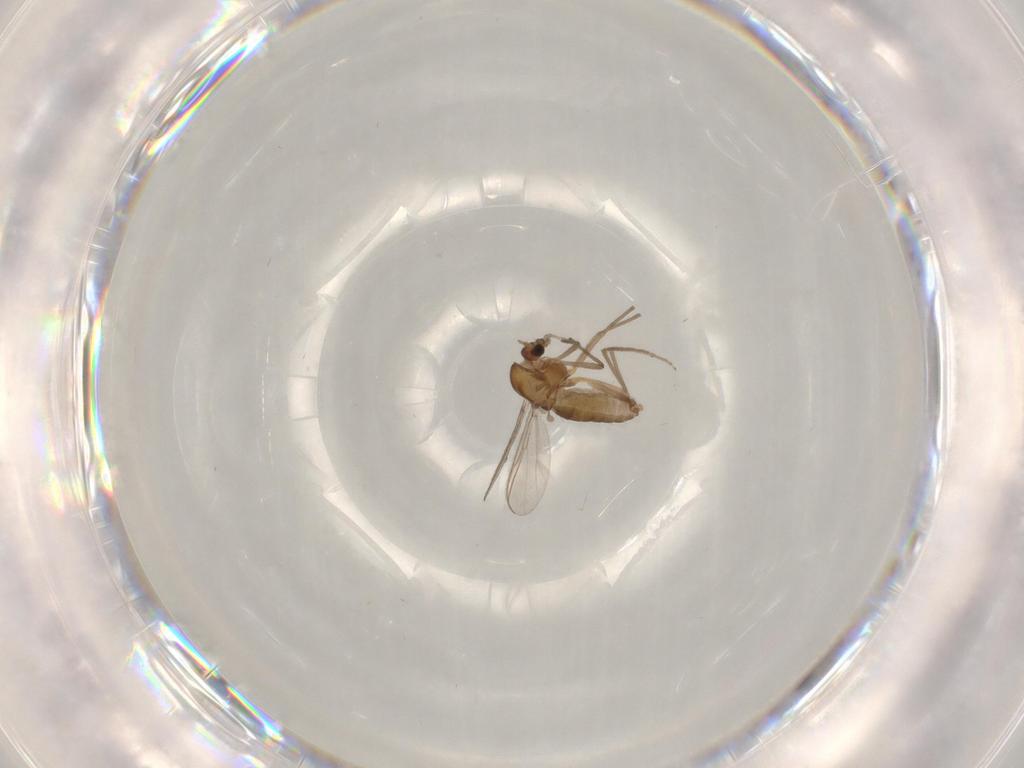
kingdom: Animalia
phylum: Arthropoda
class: Insecta
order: Diptera
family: Chironomidae
